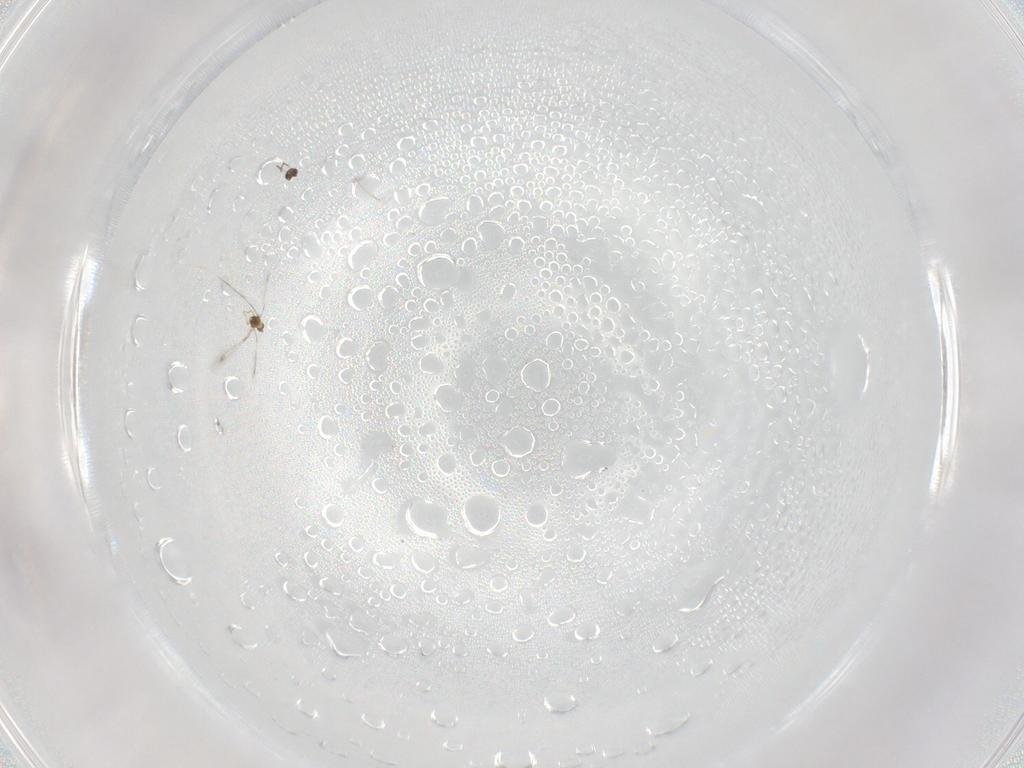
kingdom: Animalia
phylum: Arthropoda
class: Insecta
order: Hymenoptera
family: Mymaridae
